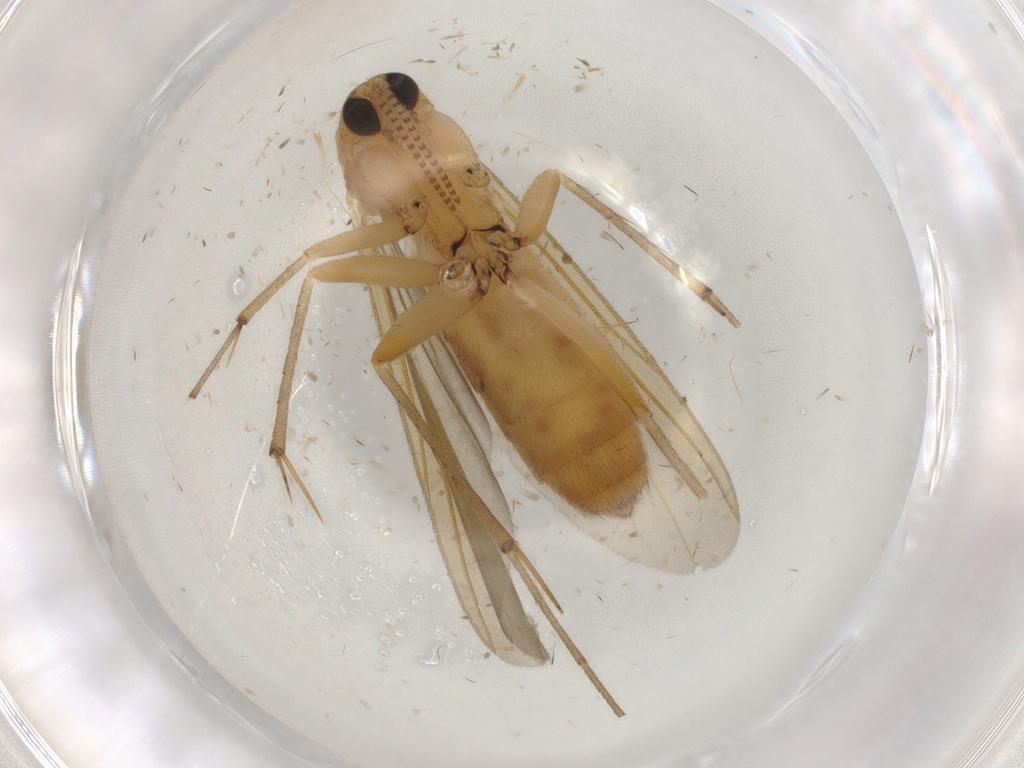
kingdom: Animalia
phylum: Arthropoda
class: Insecta
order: Diptera
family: Mycetophilidae
